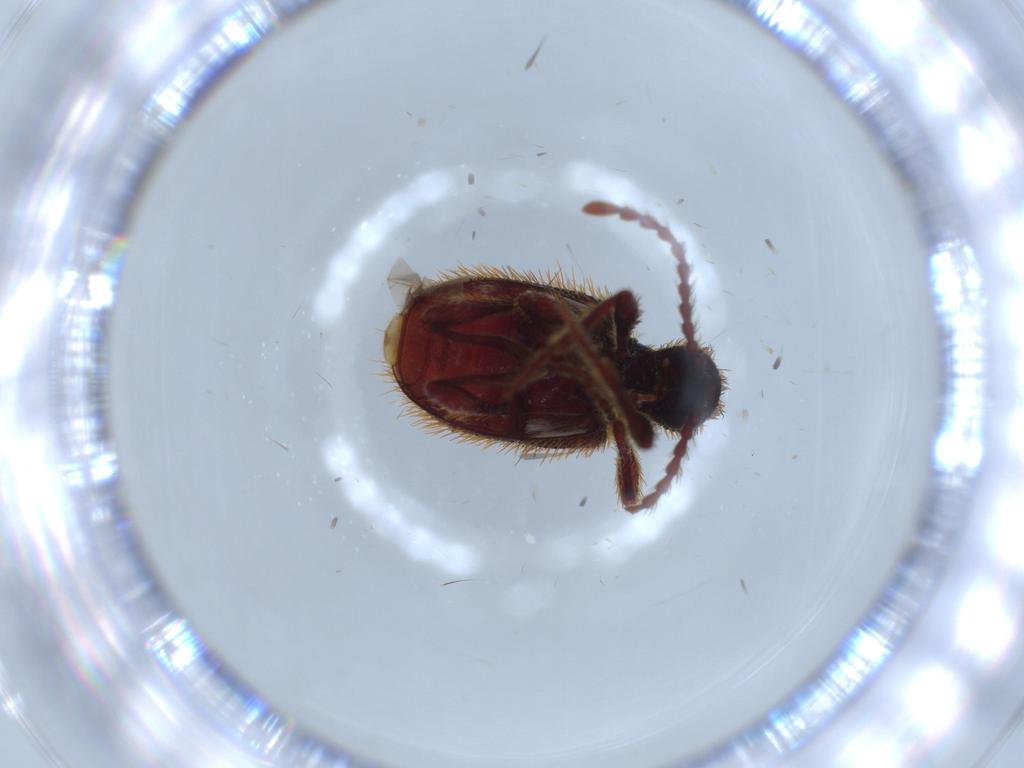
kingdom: Animalia
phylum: Arthropoda
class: Insecta
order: Coleoptera
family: Ptinidae
